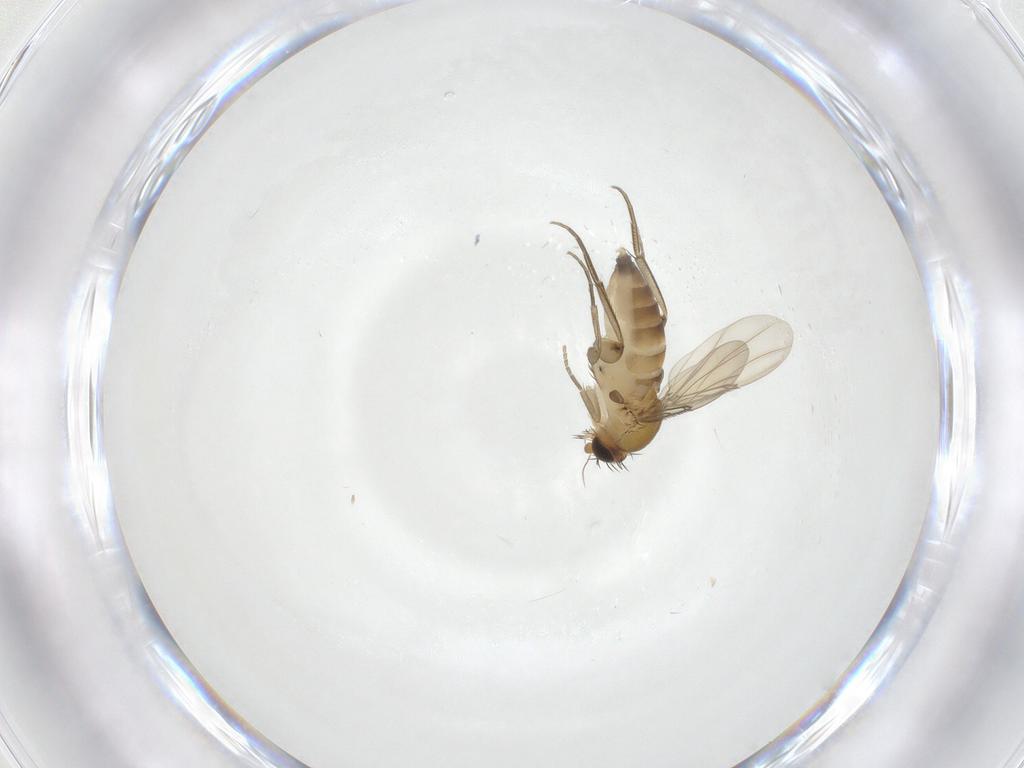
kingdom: Animalia
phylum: Arthropoda
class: Insecta
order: Diptera
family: Phoridae
